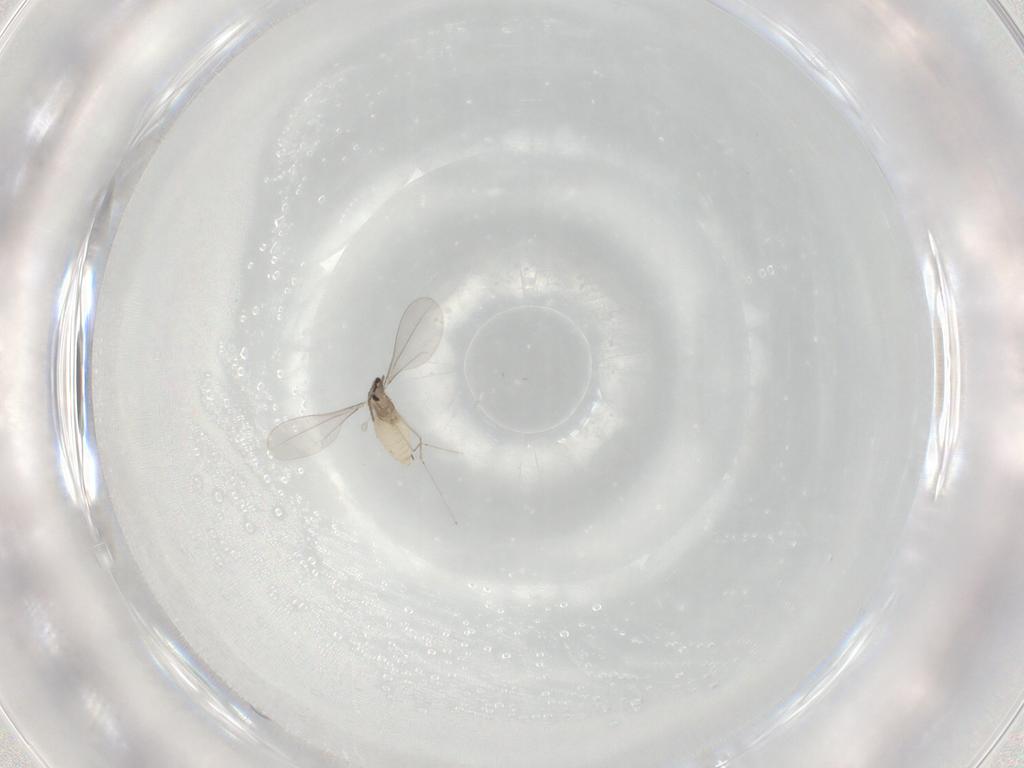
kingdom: Animalia
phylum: Arthropoda
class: Insecta
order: Diptera
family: Cecidomyiidae
